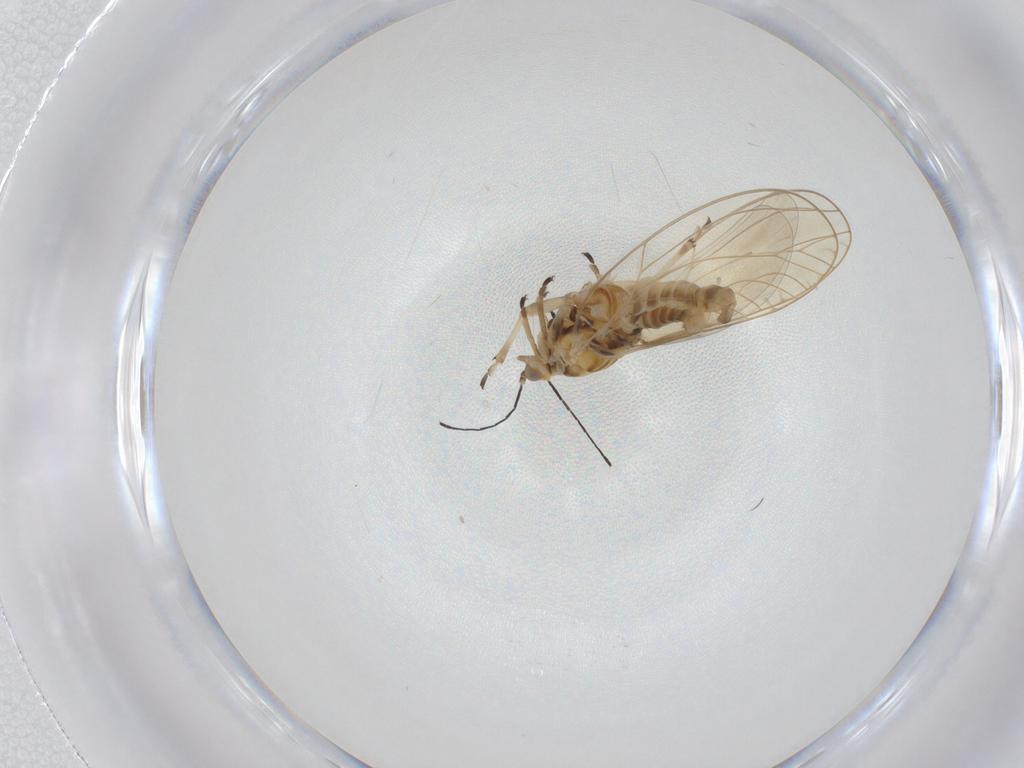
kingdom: Animalia
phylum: Arthropoda
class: Insecta
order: Hemiptera
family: Triozidae
